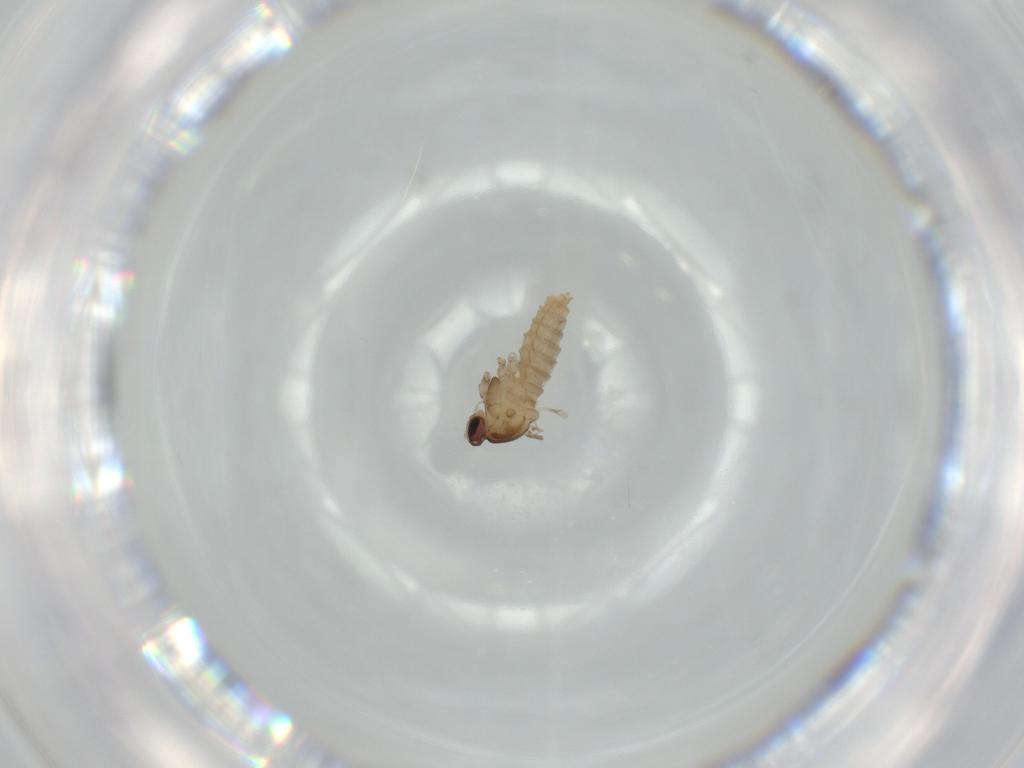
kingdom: Animalia
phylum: Arthropoda
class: Insecta
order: Diptera
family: Cecidomyiidae
